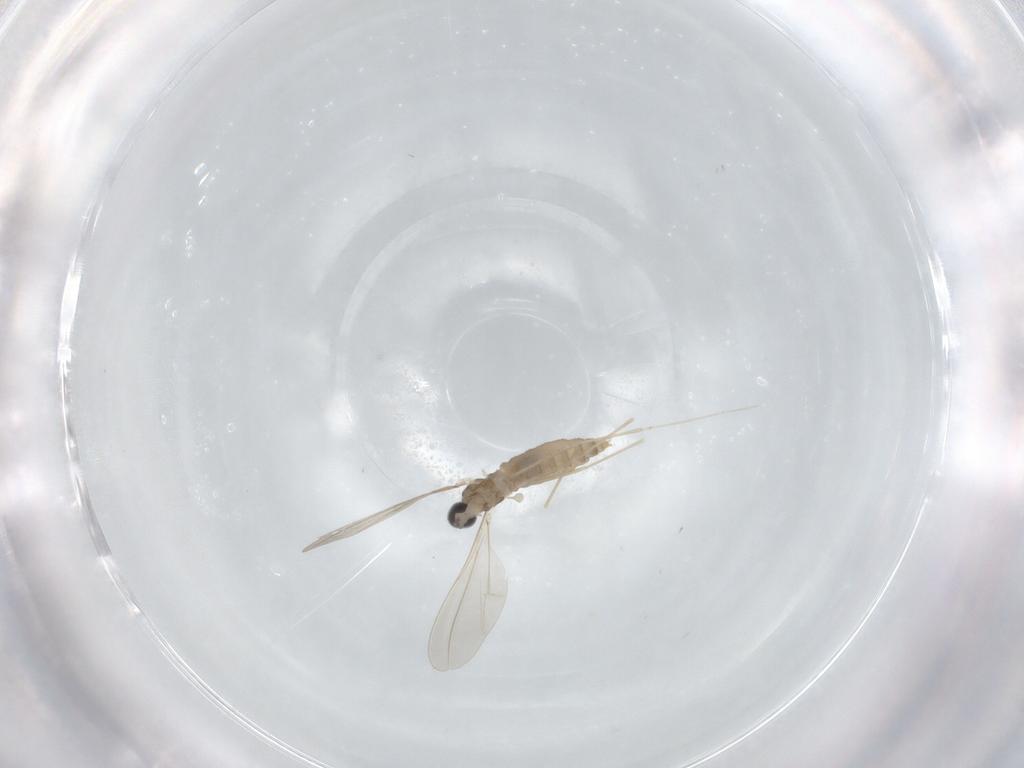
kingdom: Animalia
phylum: Arthropoda
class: Insecta
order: Diptera
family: Cecidomyiidae
